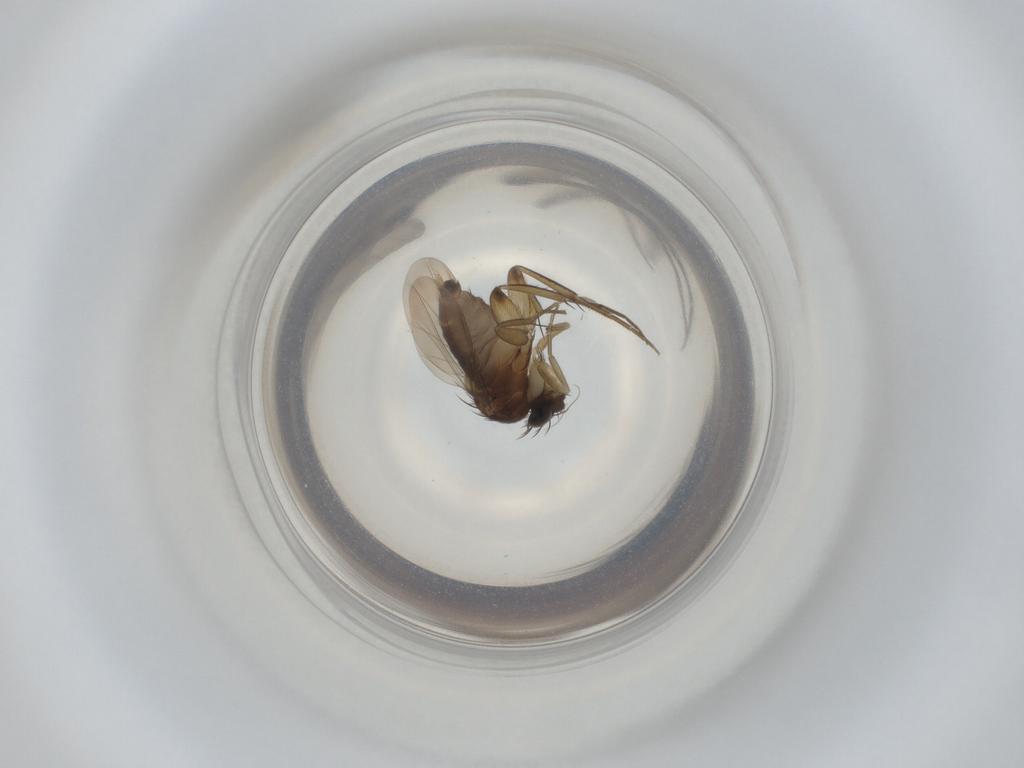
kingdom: Animalia
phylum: Arthropoda
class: Insecta
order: Diptera
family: Phoridae
